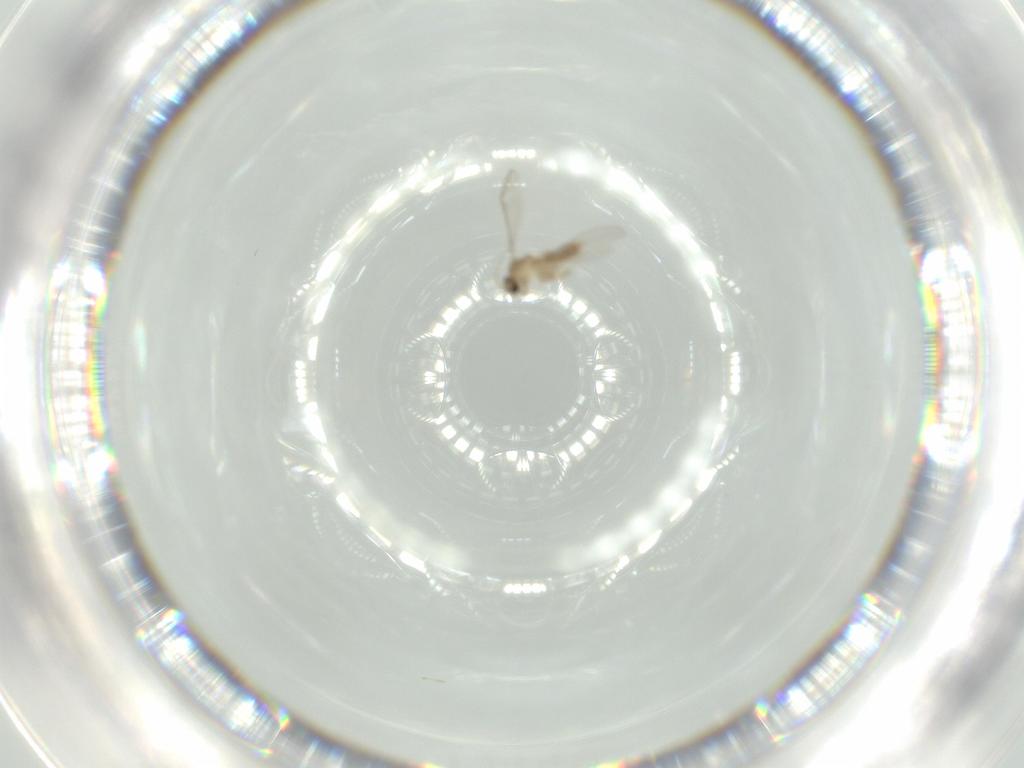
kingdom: Animalia
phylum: Arthropoda
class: Insecta
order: Diptera
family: Cecidomyiidae
